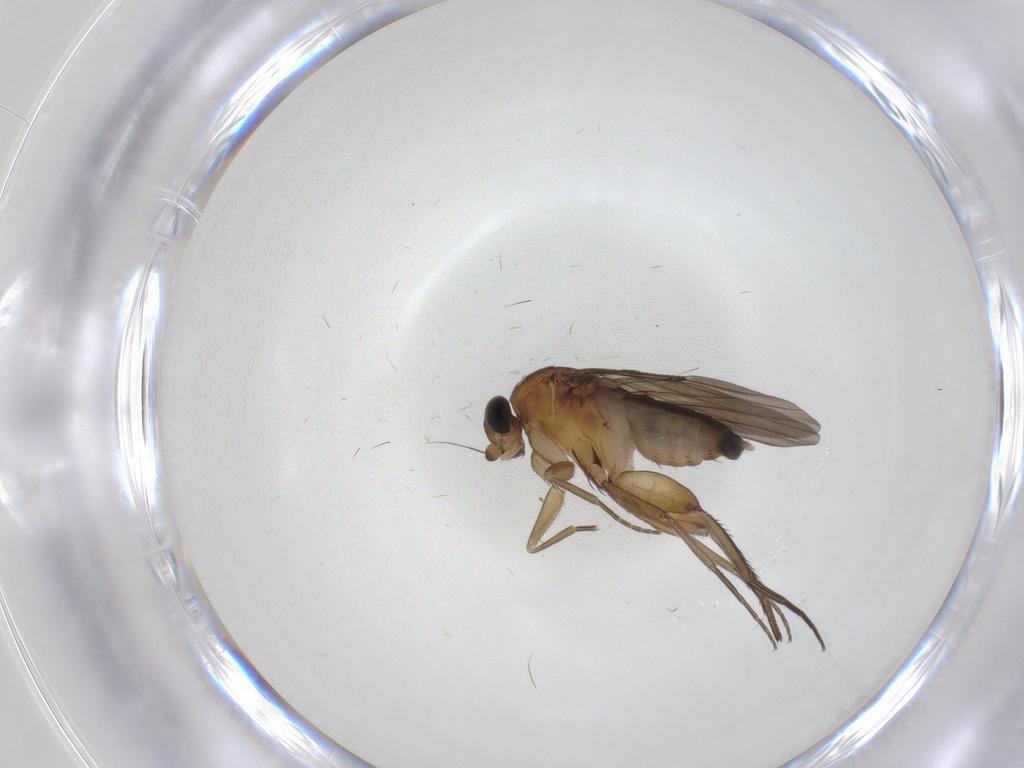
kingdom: Animalia
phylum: Arthropoda
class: Insecta
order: Diptera
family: Phoridae
